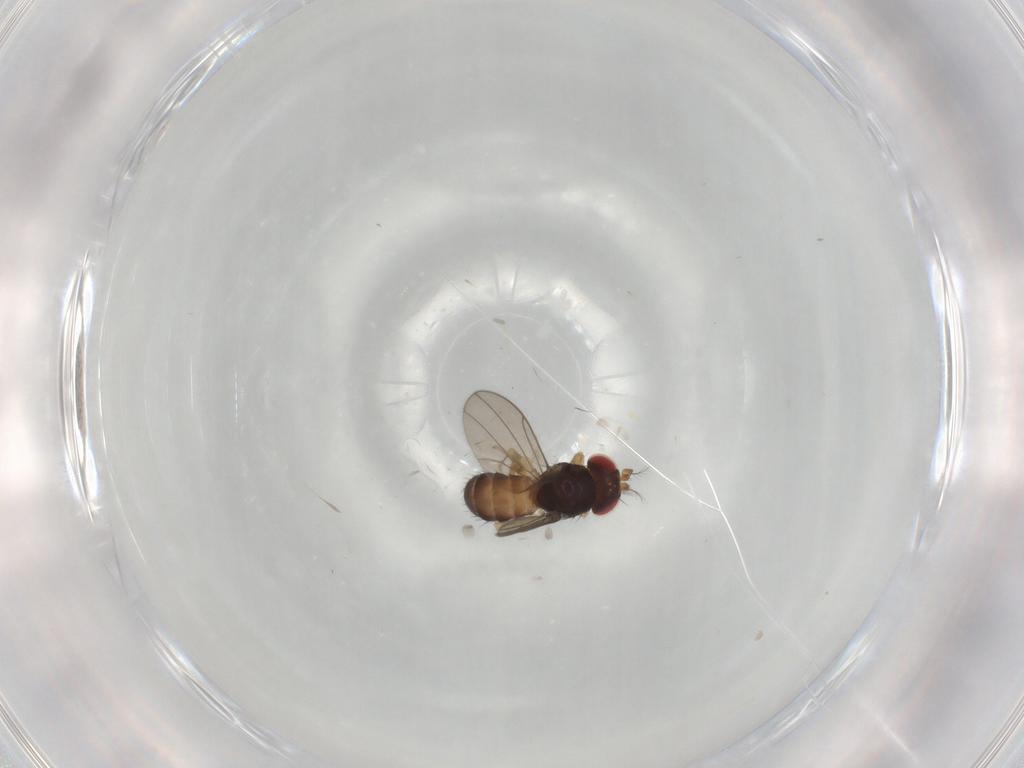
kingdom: Animalia
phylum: Arthropoda
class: Insecta
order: Diptera
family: Drosophilidae
